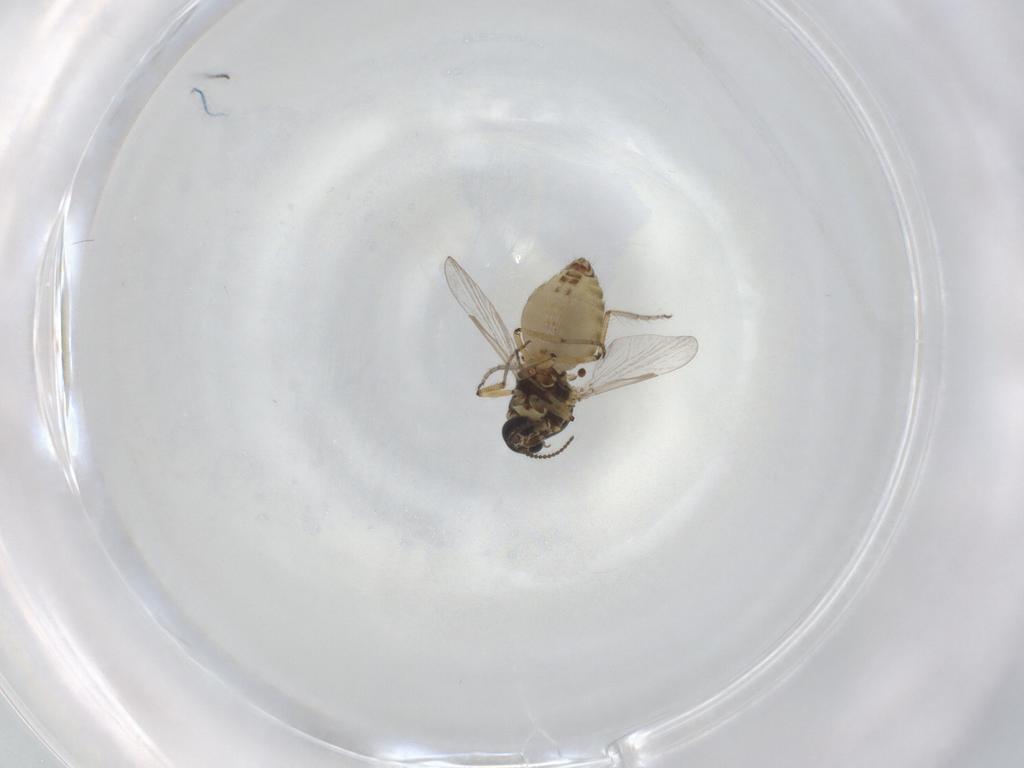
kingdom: Animalia
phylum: Arthropoda
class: Insecta
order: Diptera
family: Ceratopogonidae
